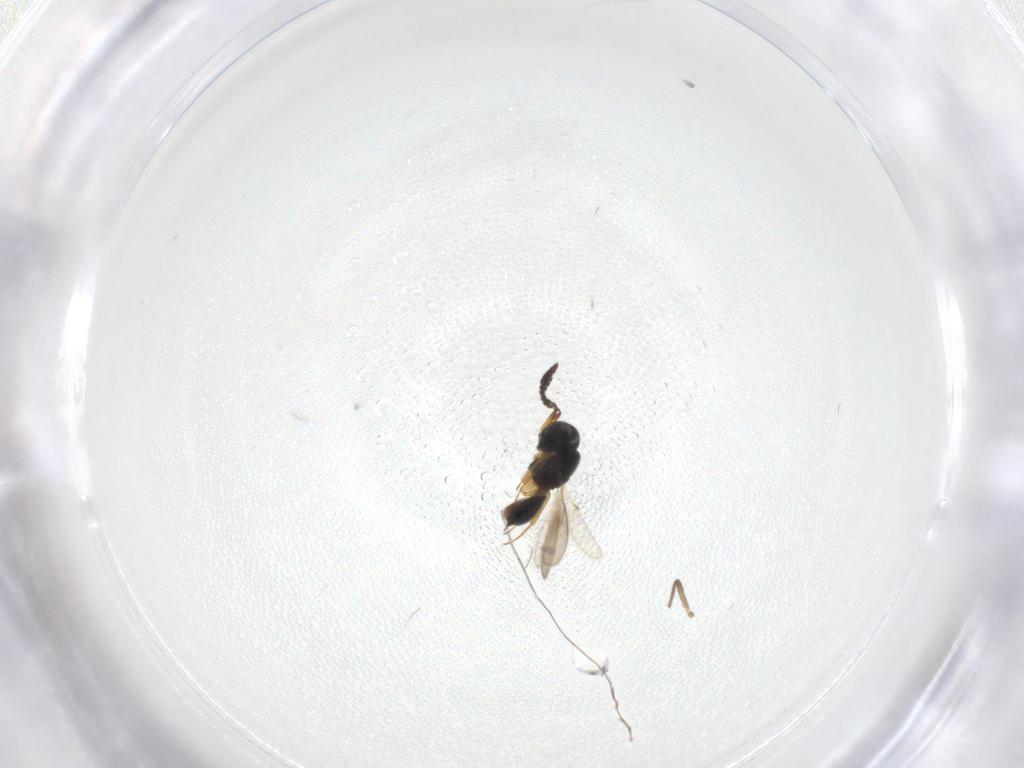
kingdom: Animalia
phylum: Arthropoda
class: Insecta
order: Hymenoptera
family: Scelionidae
